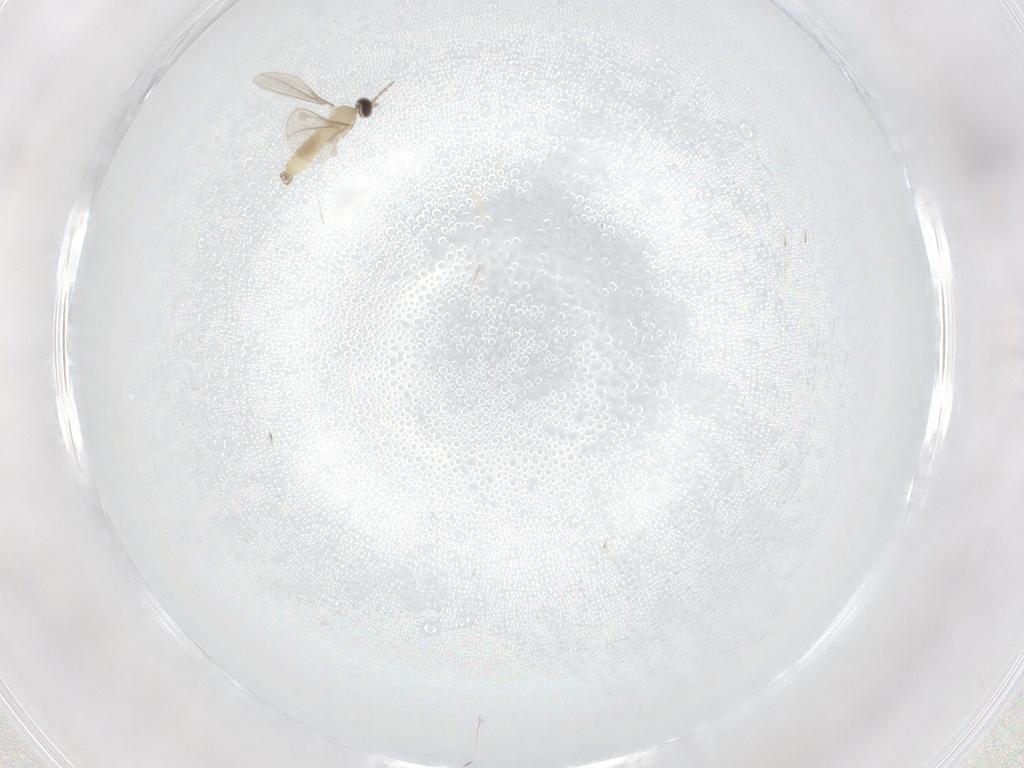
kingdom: Animalia
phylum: Arthropoda
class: Insecta
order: Diptera
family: Cecidomyiidae
